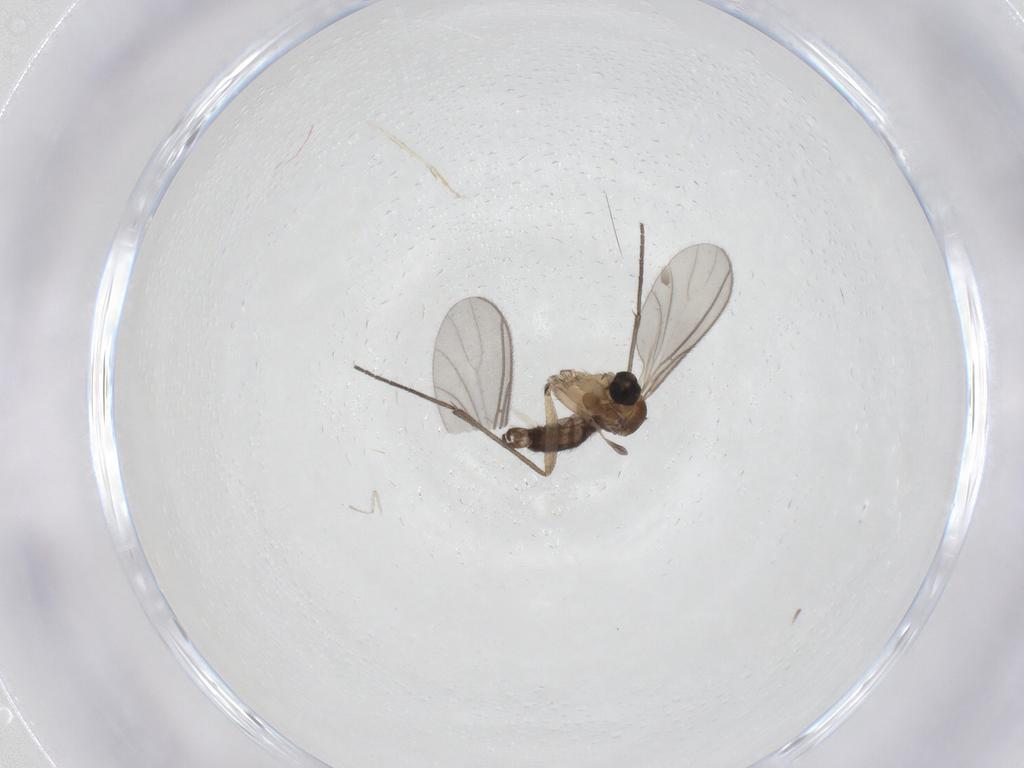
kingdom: Animalia
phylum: Arthropoda
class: Insecta
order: Diptera
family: Sciaridae
